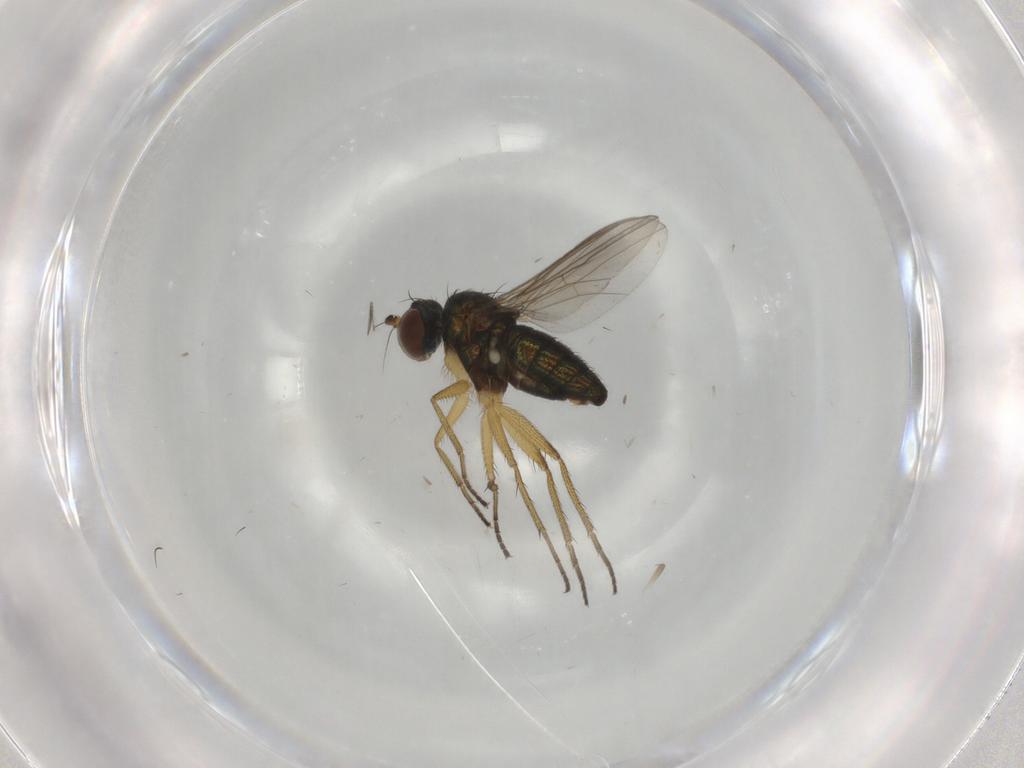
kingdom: Animalia
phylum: Arthropoda
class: Insecta
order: Diptera
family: Dolichopodidae
